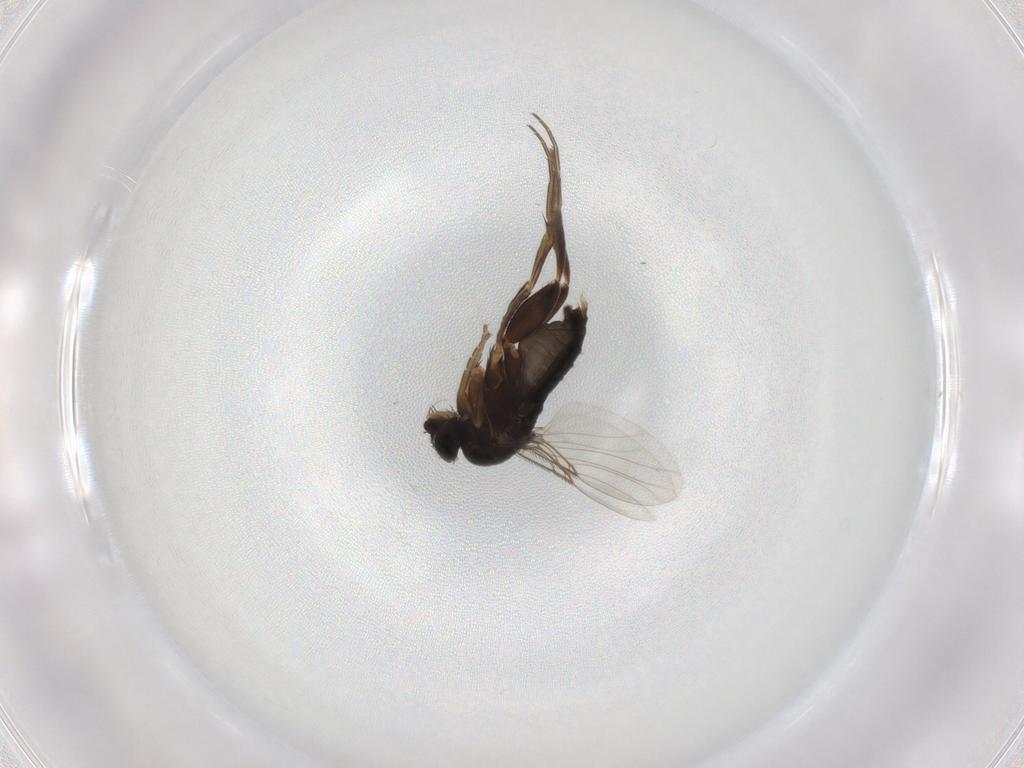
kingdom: Animalia
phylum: Arthropoda
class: Insecta
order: Diptera
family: Phoridae
